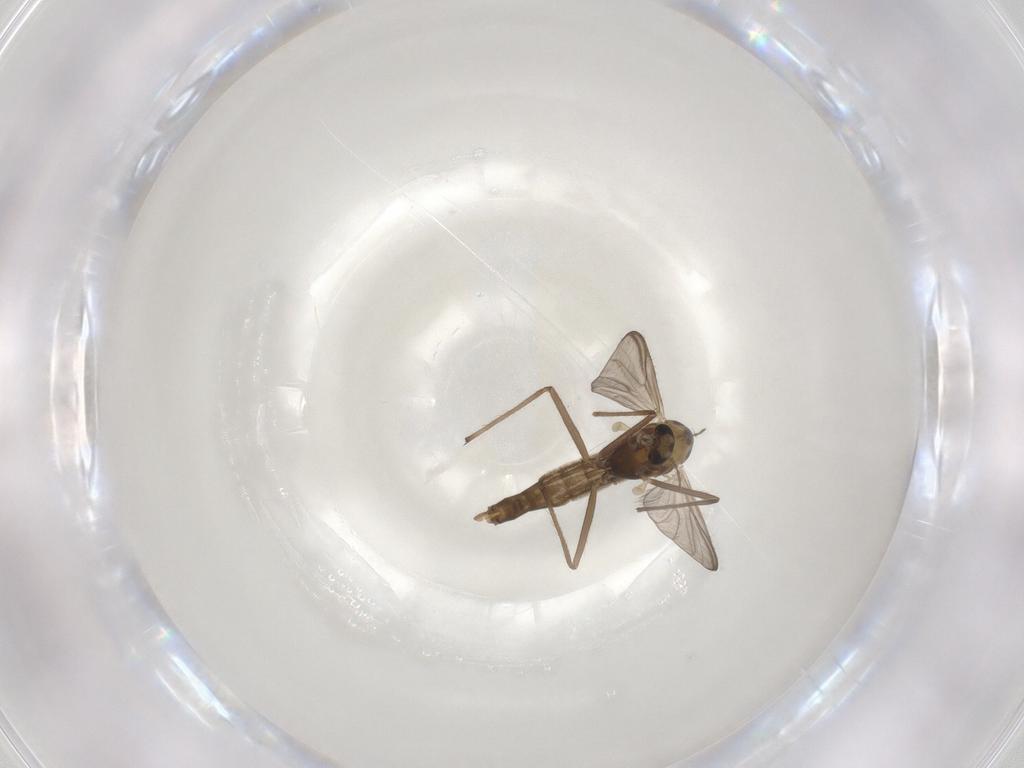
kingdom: Animalia
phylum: Arthropoda
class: Insecta
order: Diptera
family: Chironomidae
